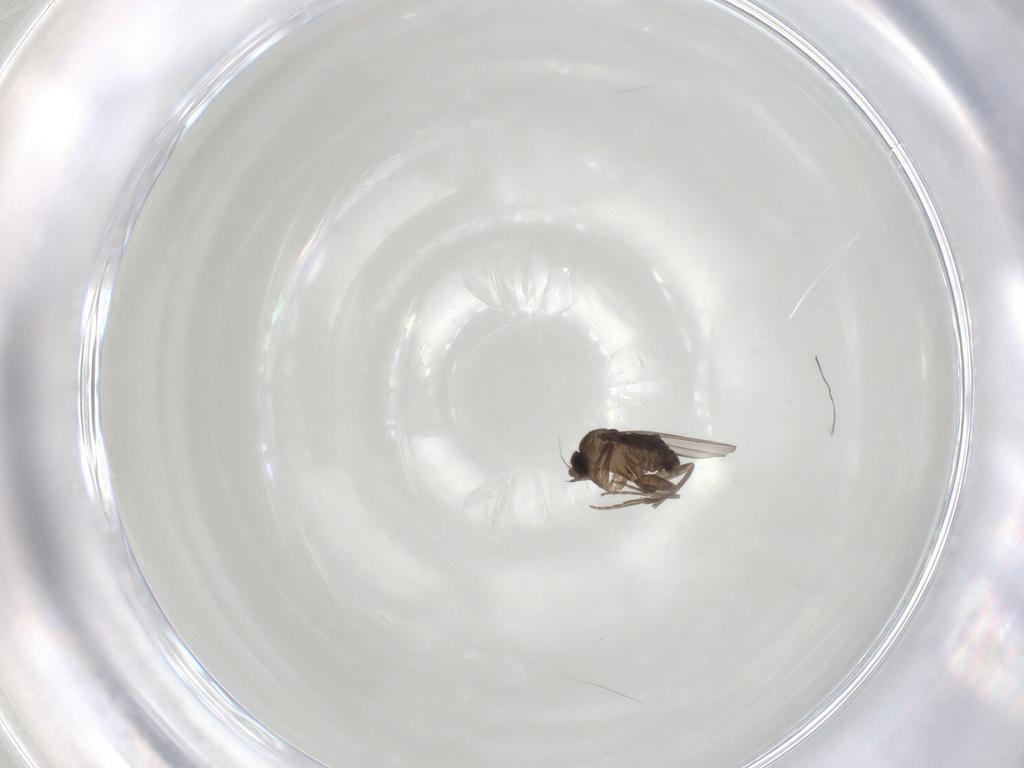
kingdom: Animalia
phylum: Arthropoda
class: Insecta
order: Diptera
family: Phoridae
